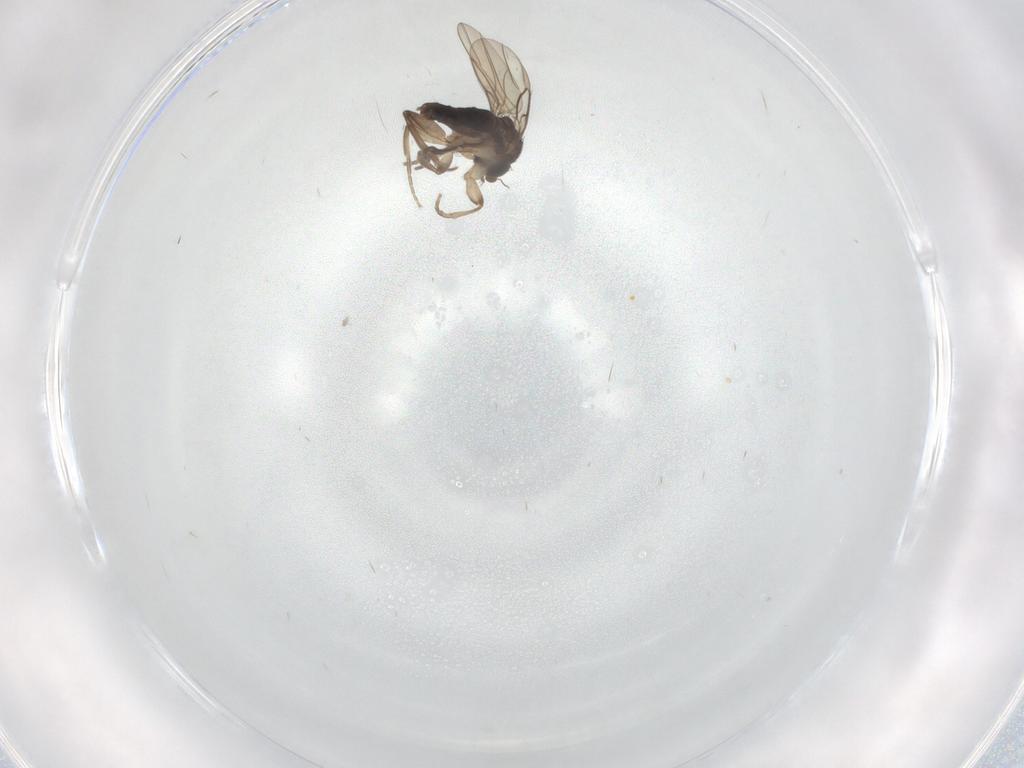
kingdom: Animalia
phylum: Arthropoda
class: Insecta
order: Diptera
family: Phoridae
